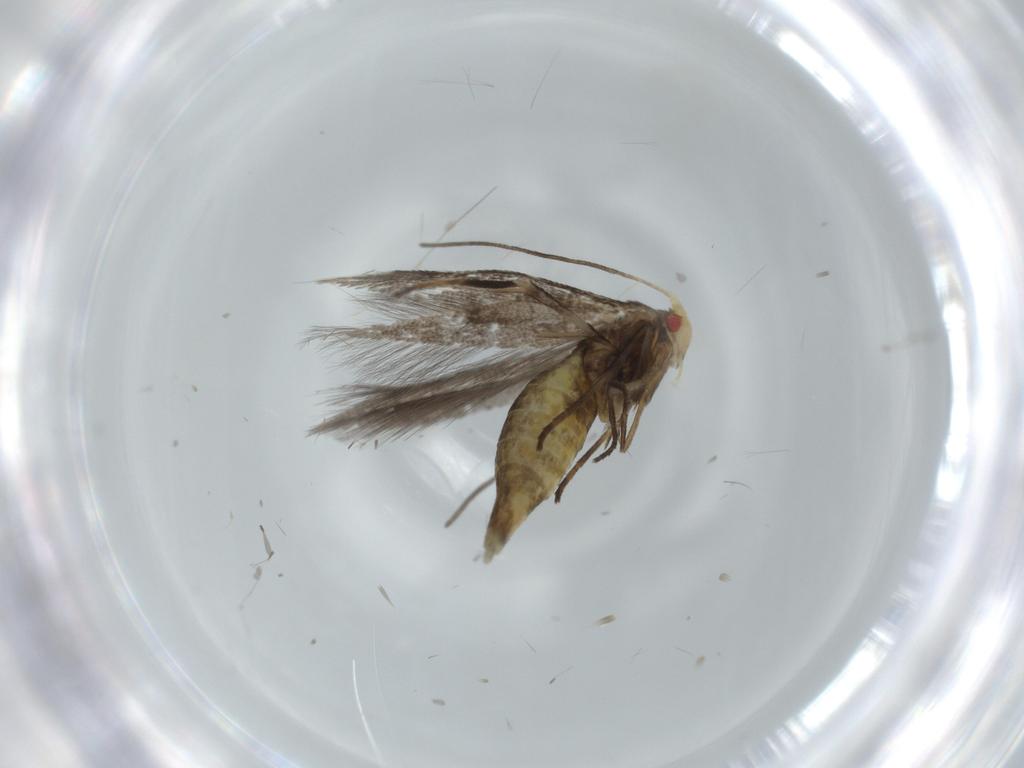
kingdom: Animalia
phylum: Arthropoda
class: Insecta
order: Lepidoptera
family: Cosmopterigidae
